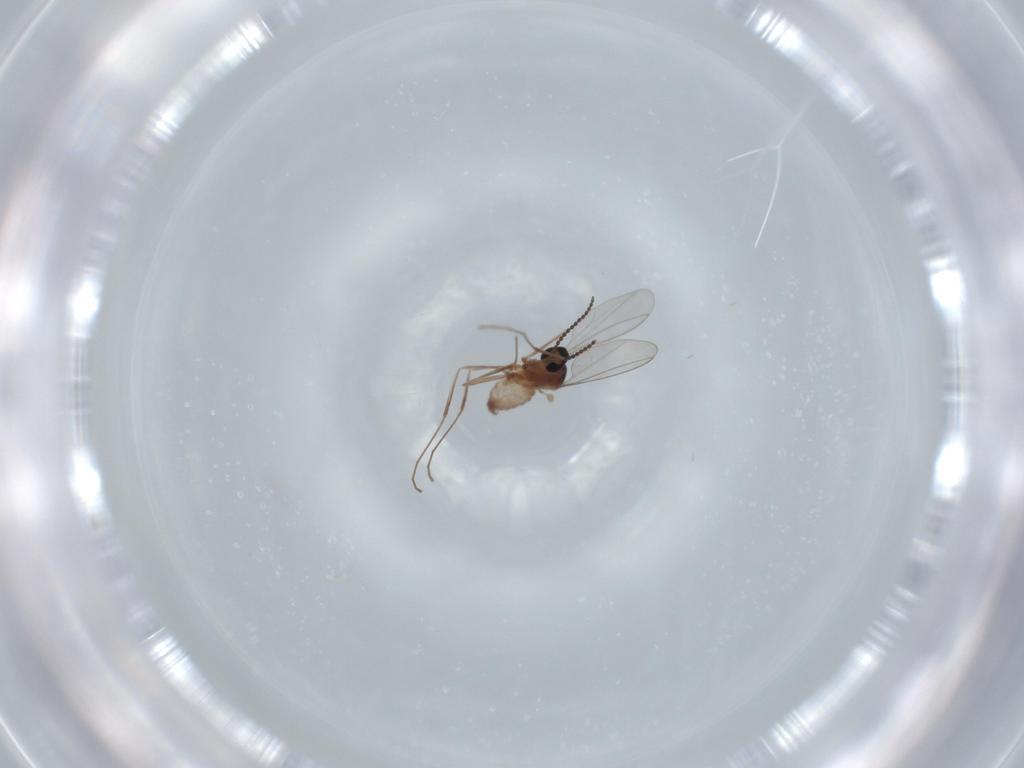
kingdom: Animalia
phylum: Arthropoda
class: Insecta
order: Diptera
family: Cecidomyiidae
